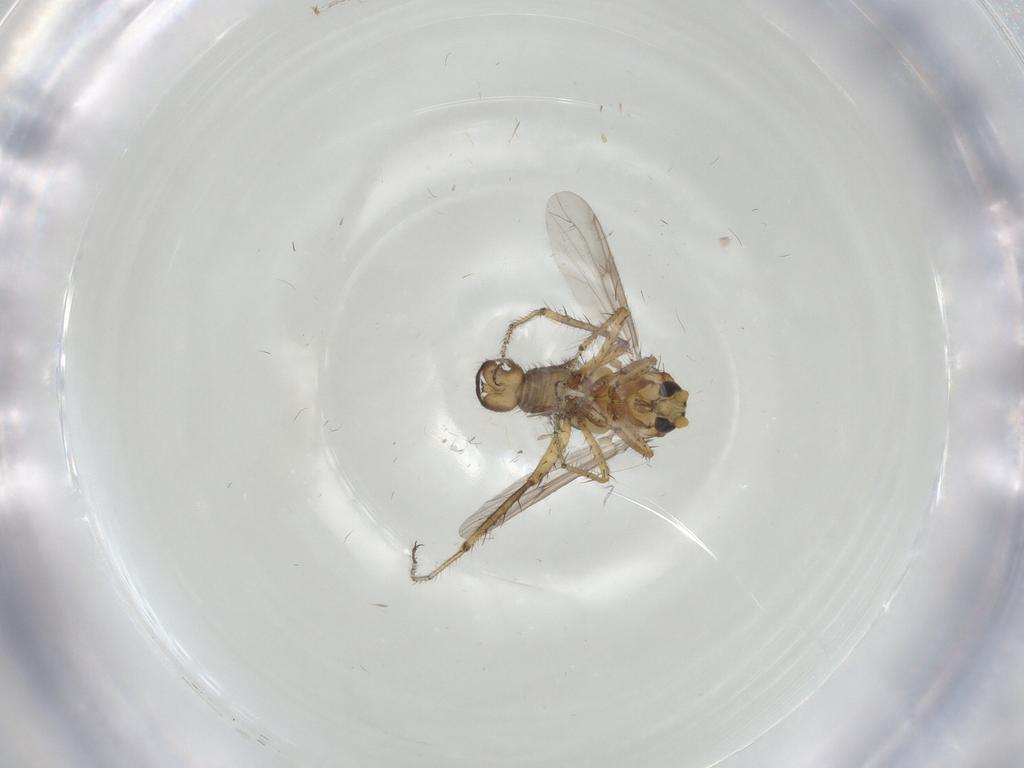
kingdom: Animalia
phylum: Arthropoda
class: Insecta
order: Diptera
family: Ceratopogonidae
